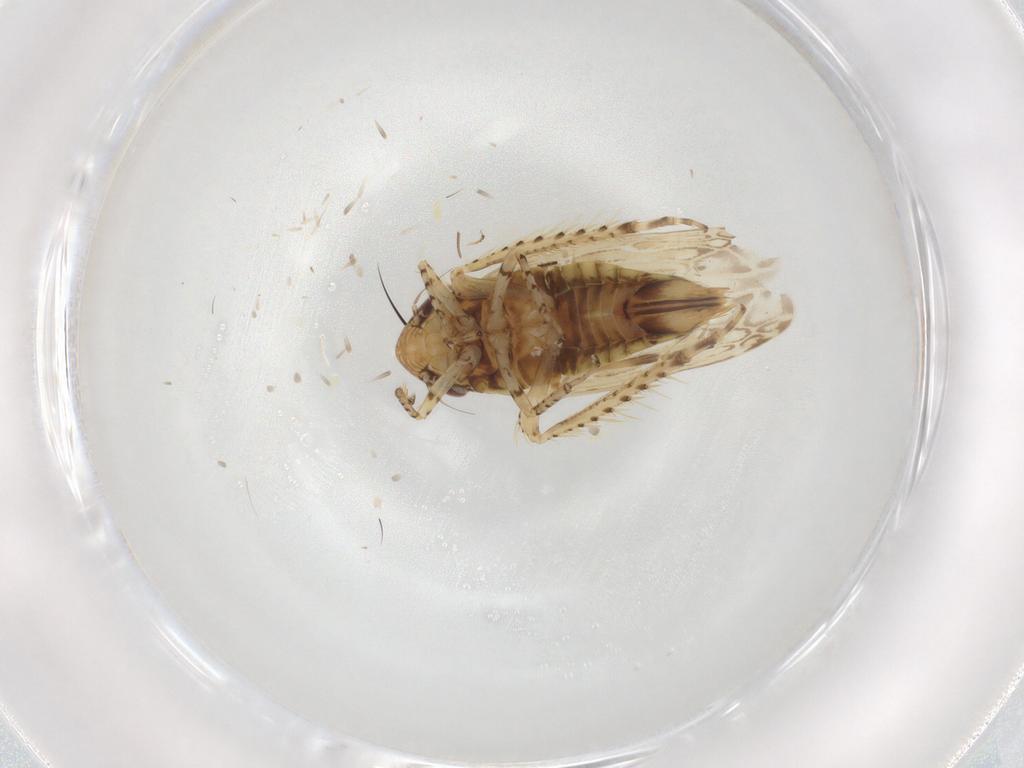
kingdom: Animalia
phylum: Arthropoda
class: Insecta
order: Hemiptera
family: Cicadellidae
